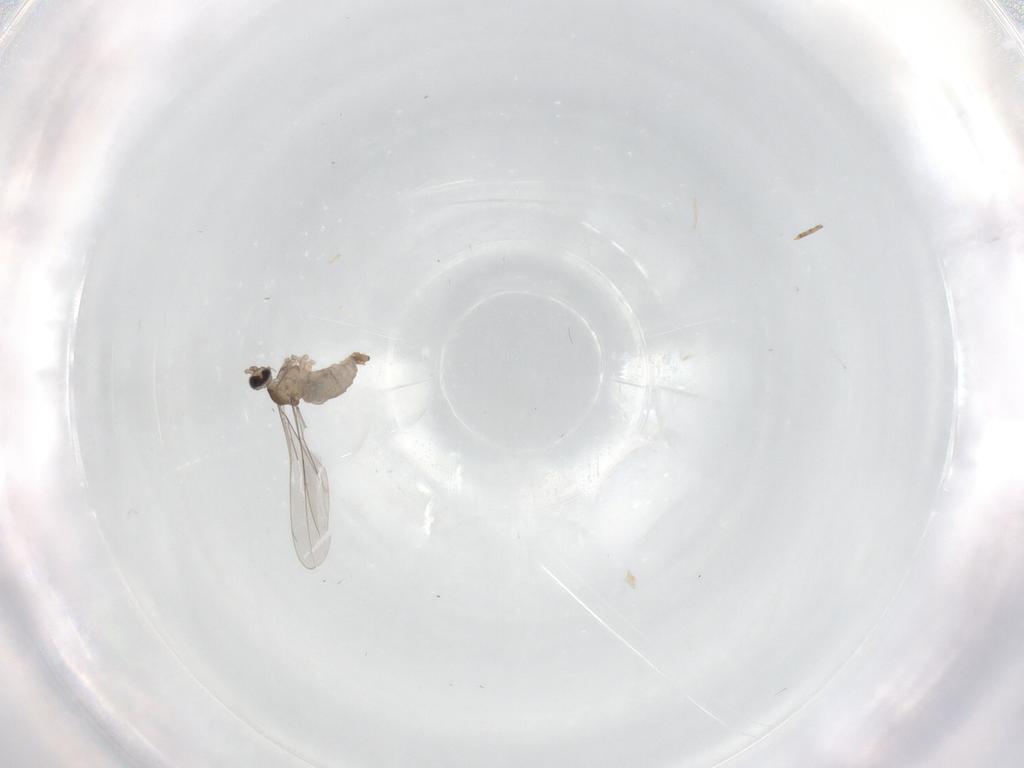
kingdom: Animalia
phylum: Arthropoda
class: Insecta
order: Diptera
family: Cecidomyiidae
